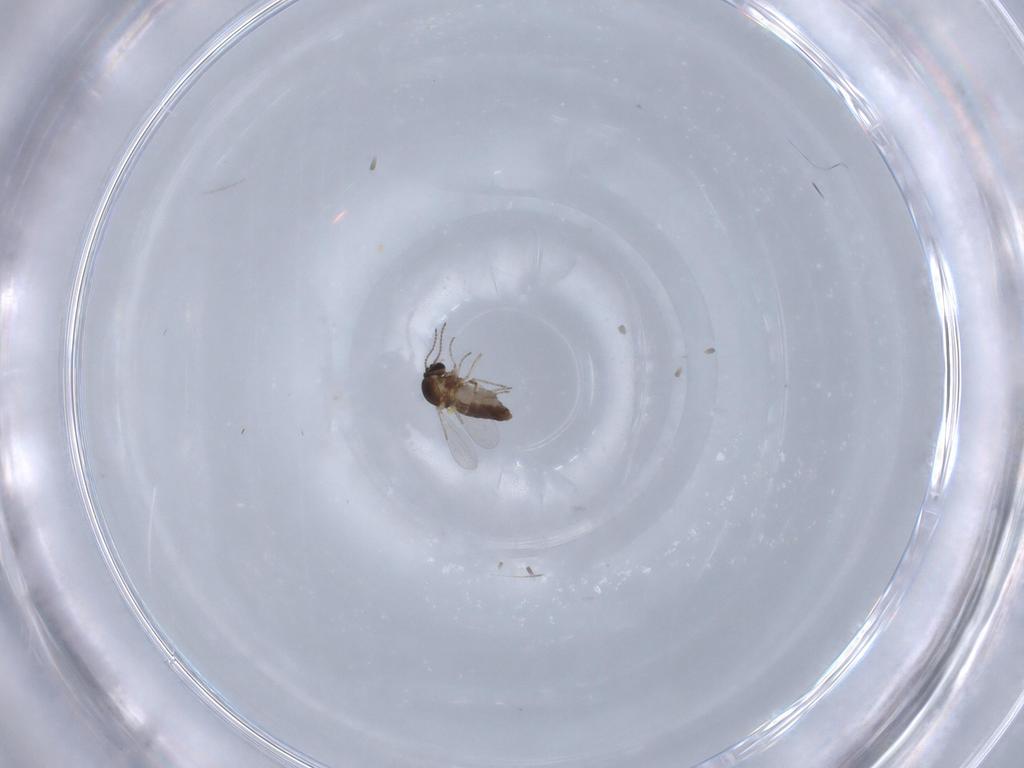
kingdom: Animalia
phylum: Arthropoda
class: Insecta
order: Diptera
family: Ceratopogonidae
